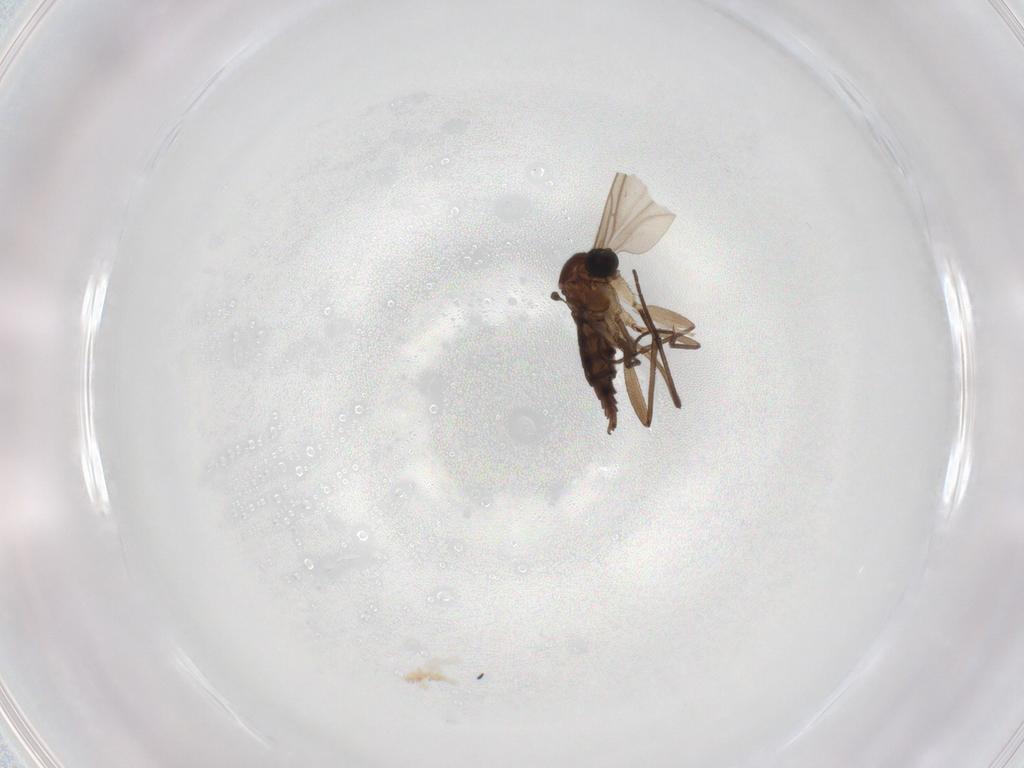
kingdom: Animalia
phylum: Arthropoda
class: Insecta
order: Diptera
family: Sciaridae
